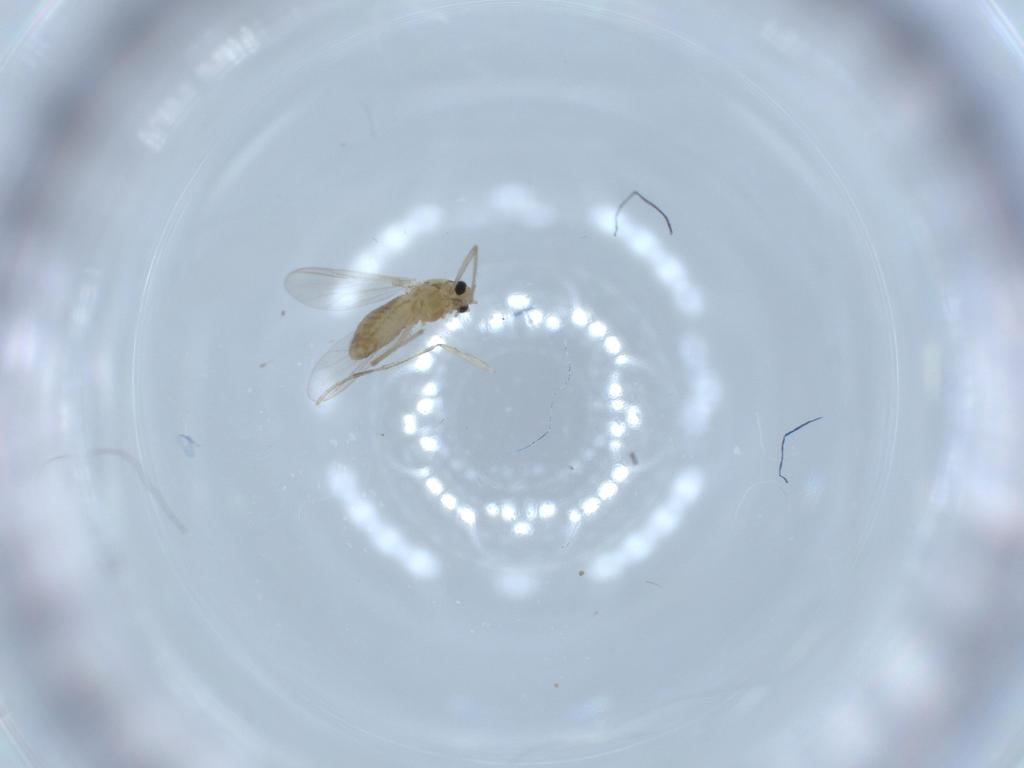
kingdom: Animalia
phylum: Arthropoda
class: Insecta
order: Diptera
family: Chironomidae
